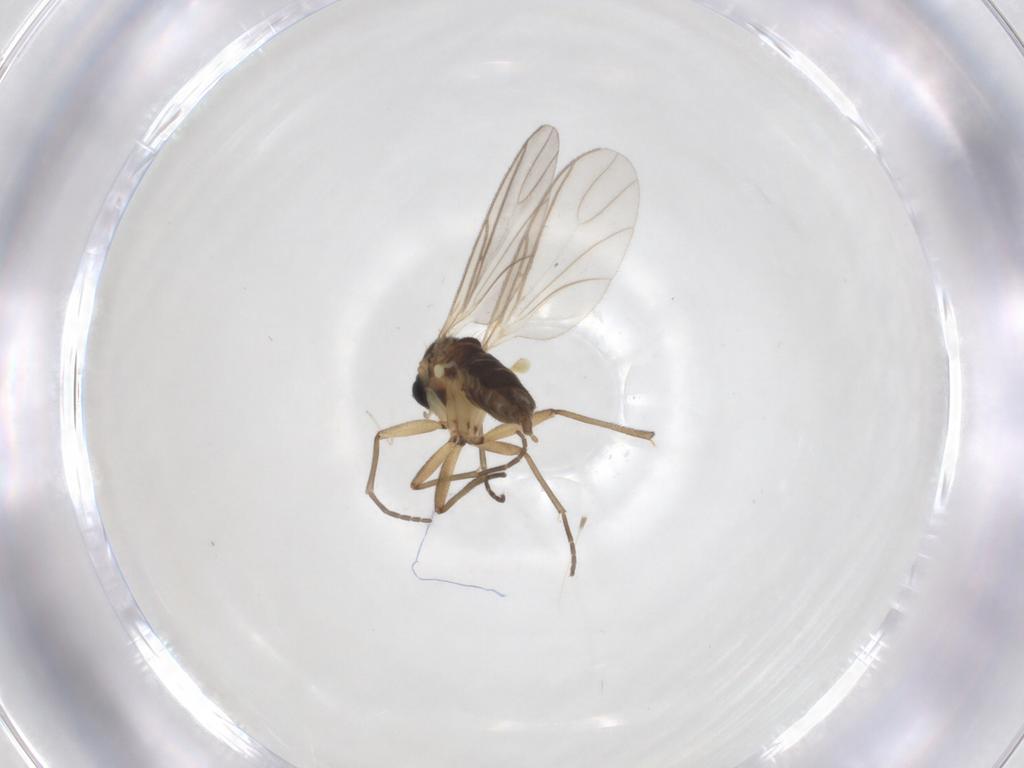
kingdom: Animalia
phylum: Arthropoda
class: Insecta
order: Diptera
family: Cecidomyiidae
